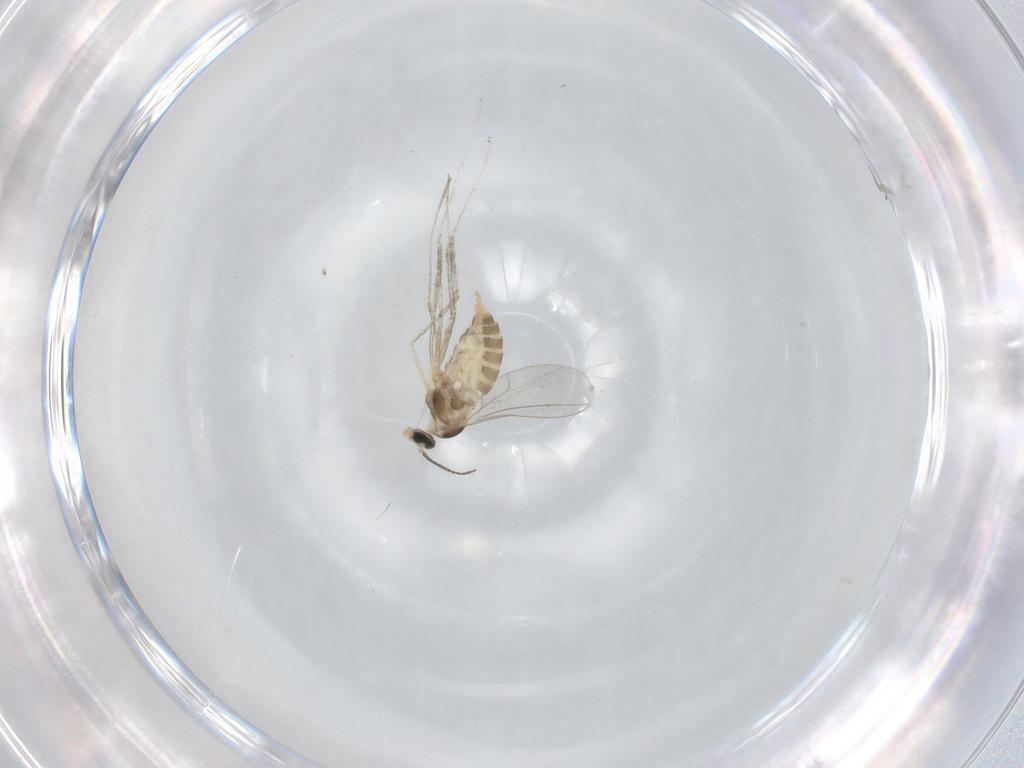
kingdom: Animalia
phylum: Arthropoda
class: Insecta
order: Diptera
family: Cecidomyiidae
